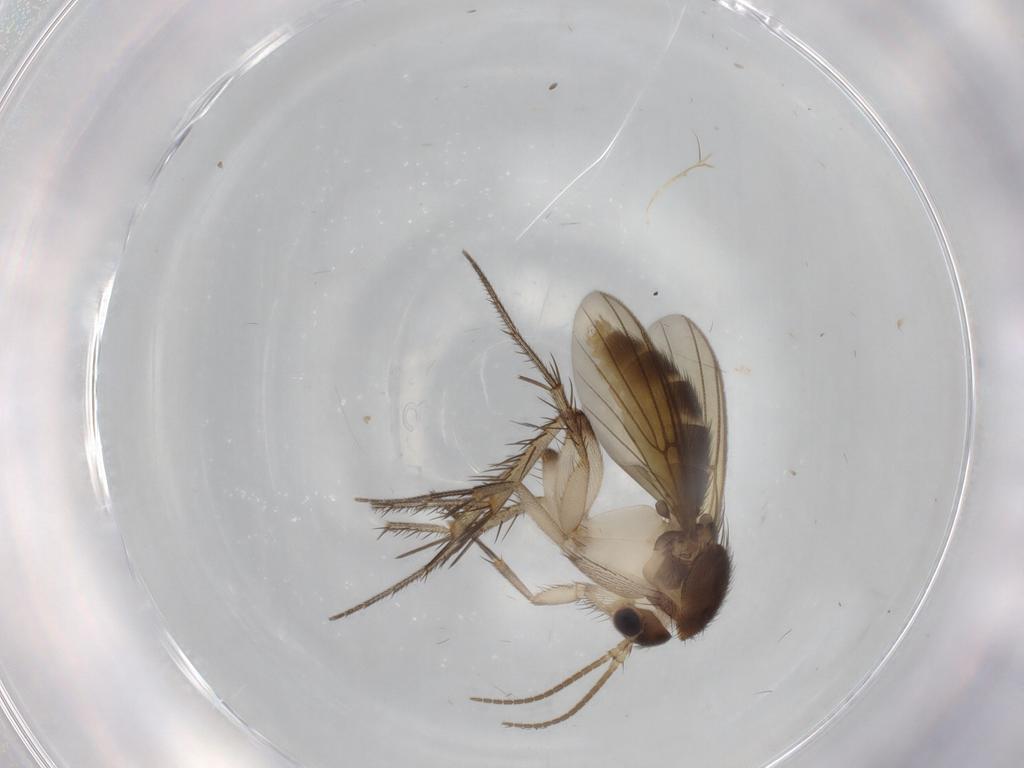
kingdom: Animalia
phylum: Arthropoda
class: Insecta
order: Diptera
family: Mycetophilidae
